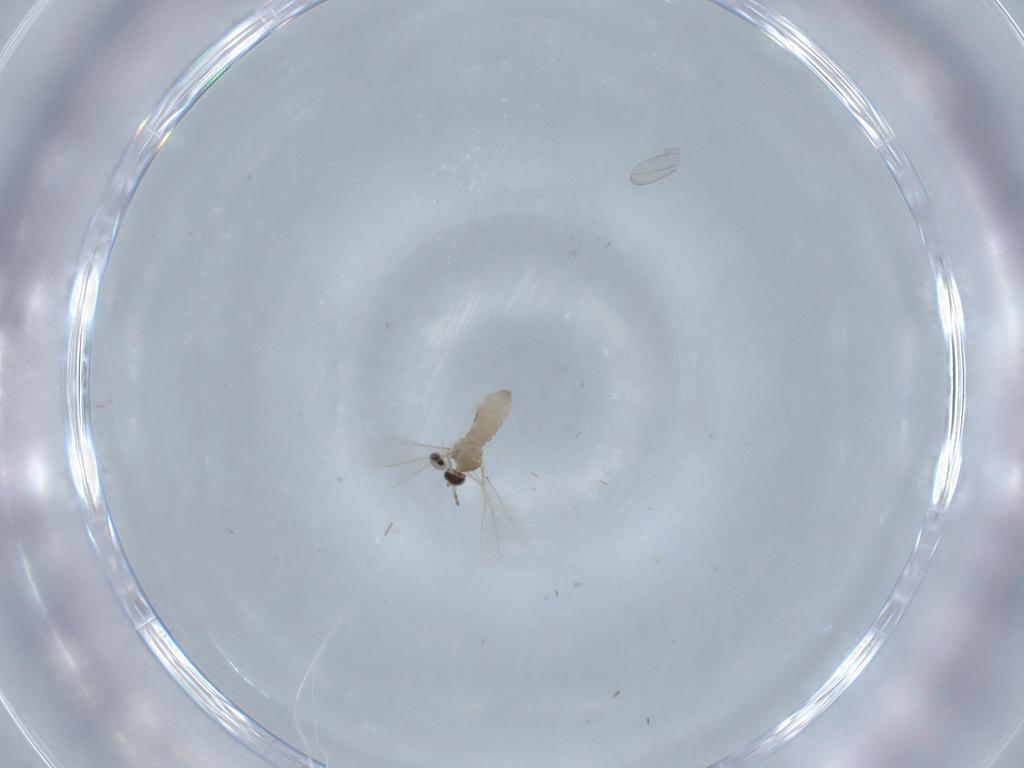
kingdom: Animalia
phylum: Arthropoda
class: Insecta
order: Diptera
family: Cecidomyiidae
